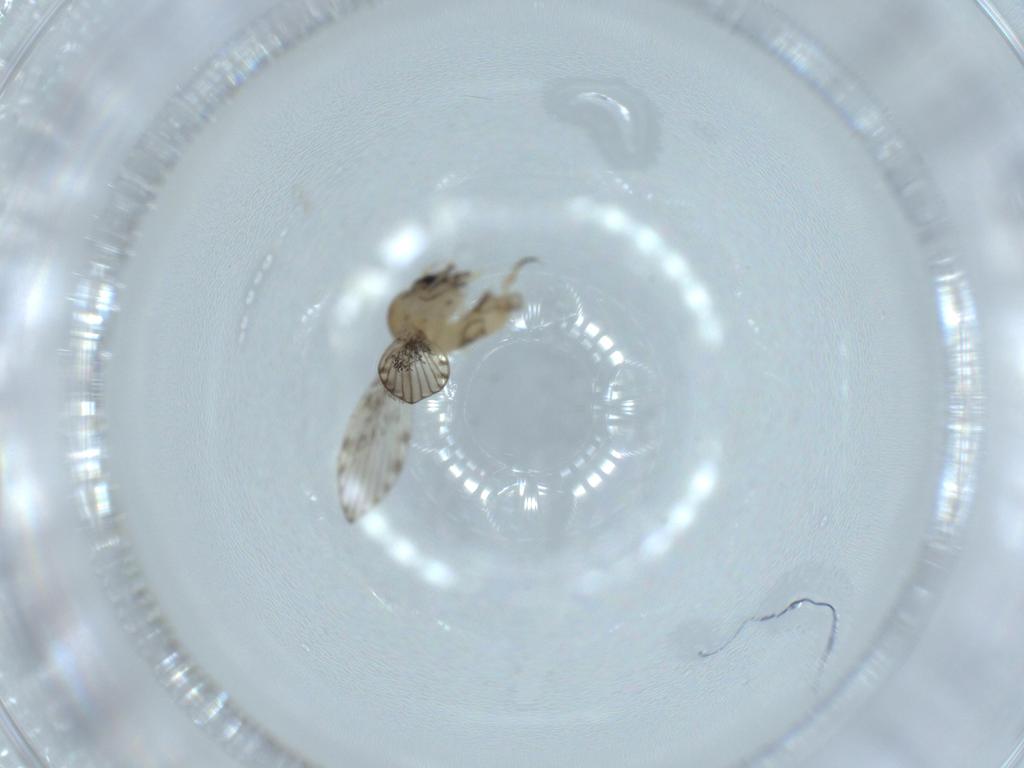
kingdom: Animalia
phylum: Arthropoda
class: Insecta
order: Diptera
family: Psychodidae
